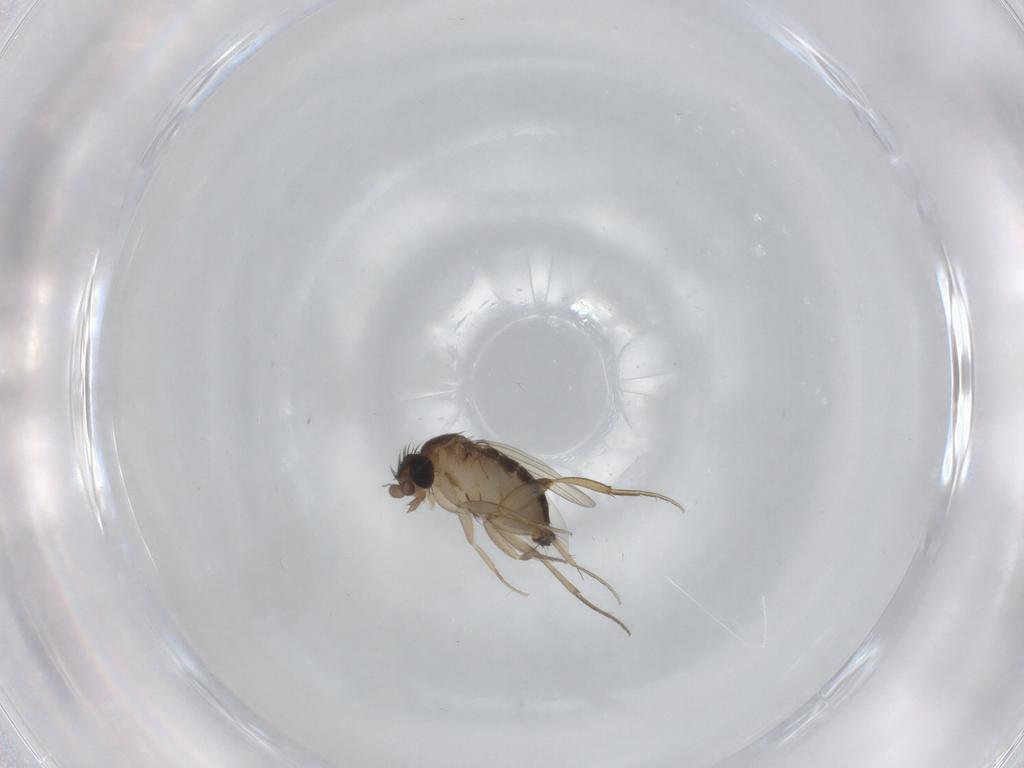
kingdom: Animalia
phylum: Arthropoda
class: Insecta
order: Diptera
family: Phoridae
